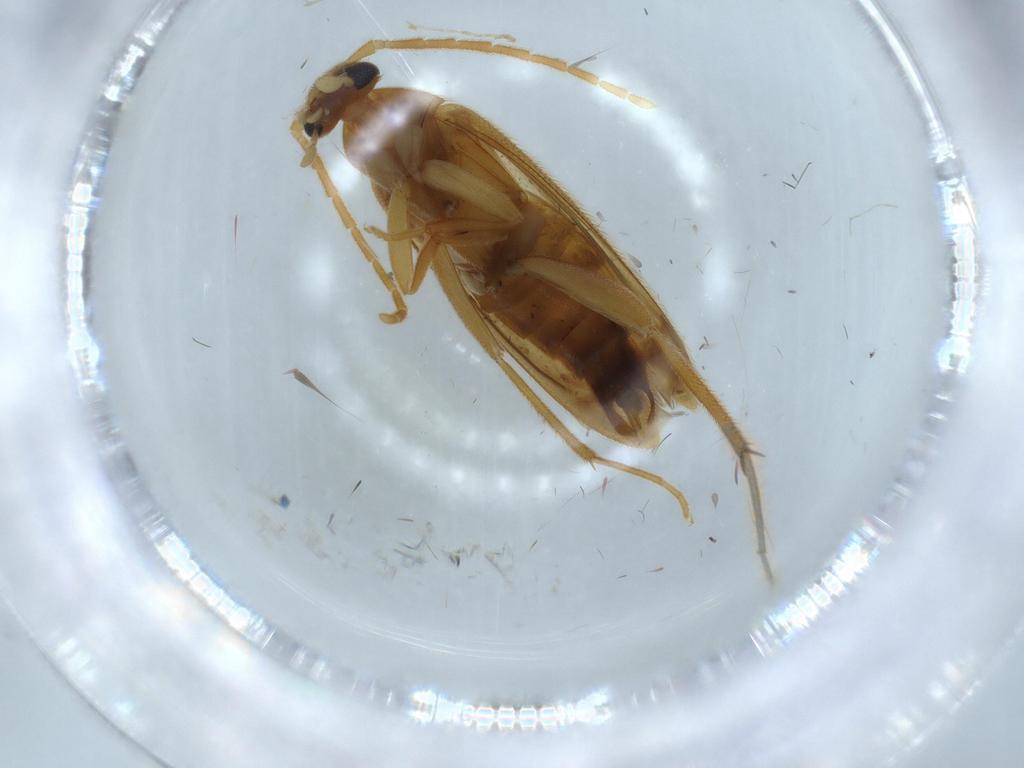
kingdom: Animalia
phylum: Arthropoda
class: Insecta
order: Coleoptera
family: Scraptiidae
